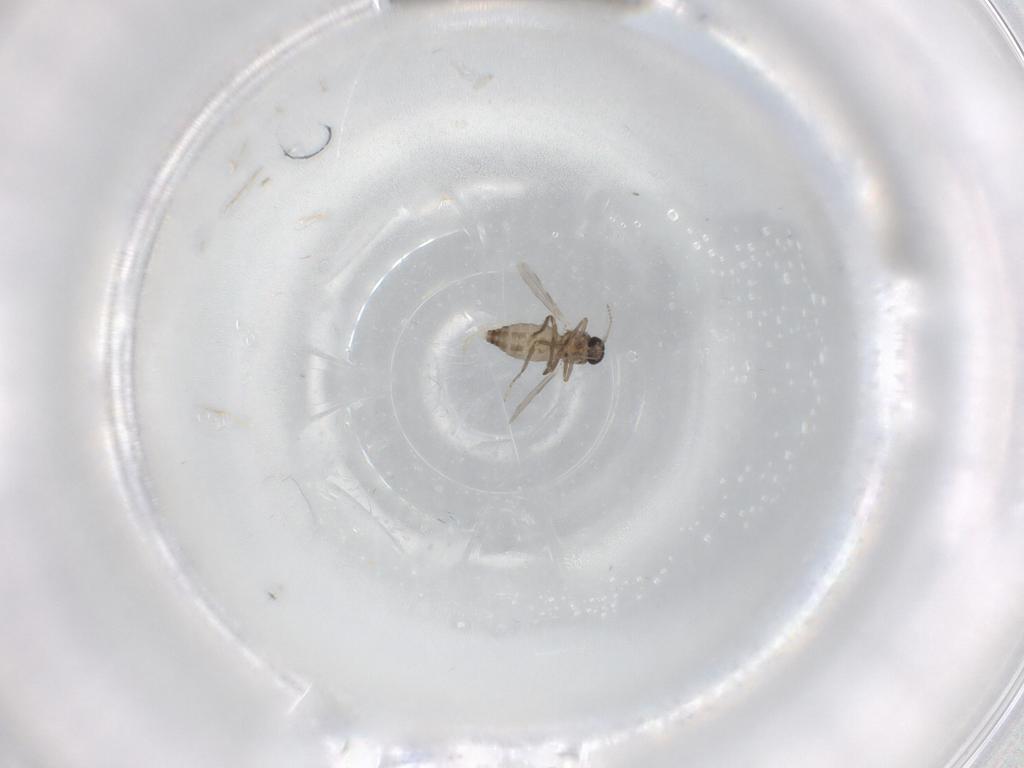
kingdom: Animalia
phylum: Arthropoda
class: Insecta
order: Diptera
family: Ceratopogonidae
